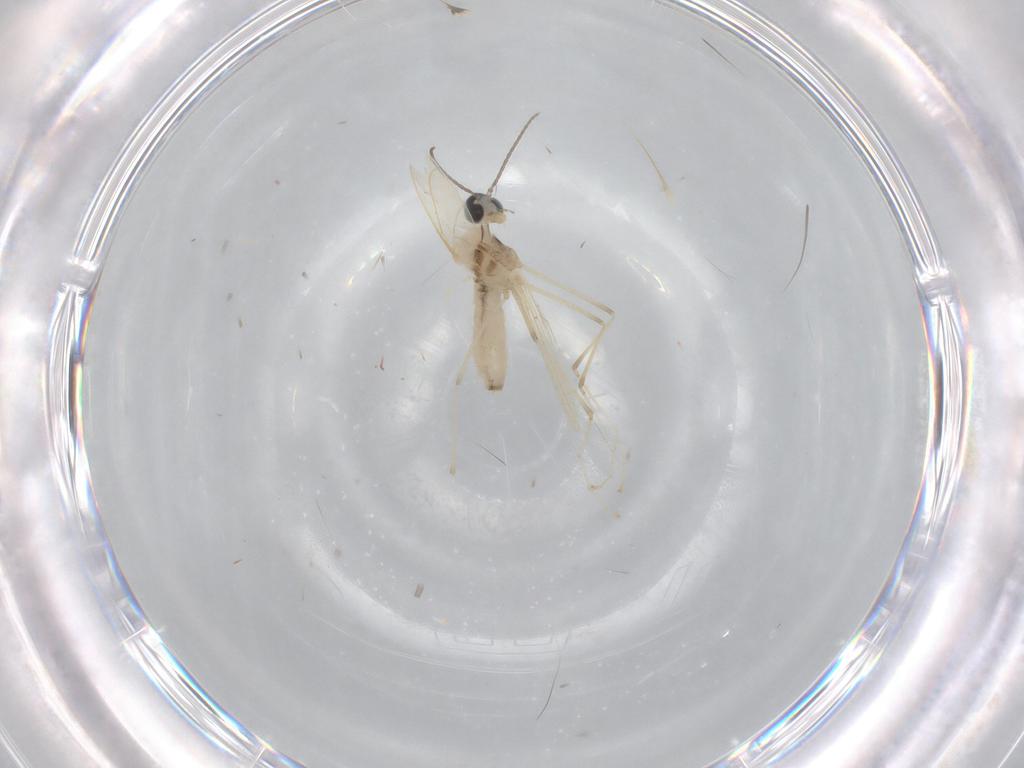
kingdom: Animalia
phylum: Arthropoda
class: Insecta
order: Diptera
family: Cecidomyiidae
